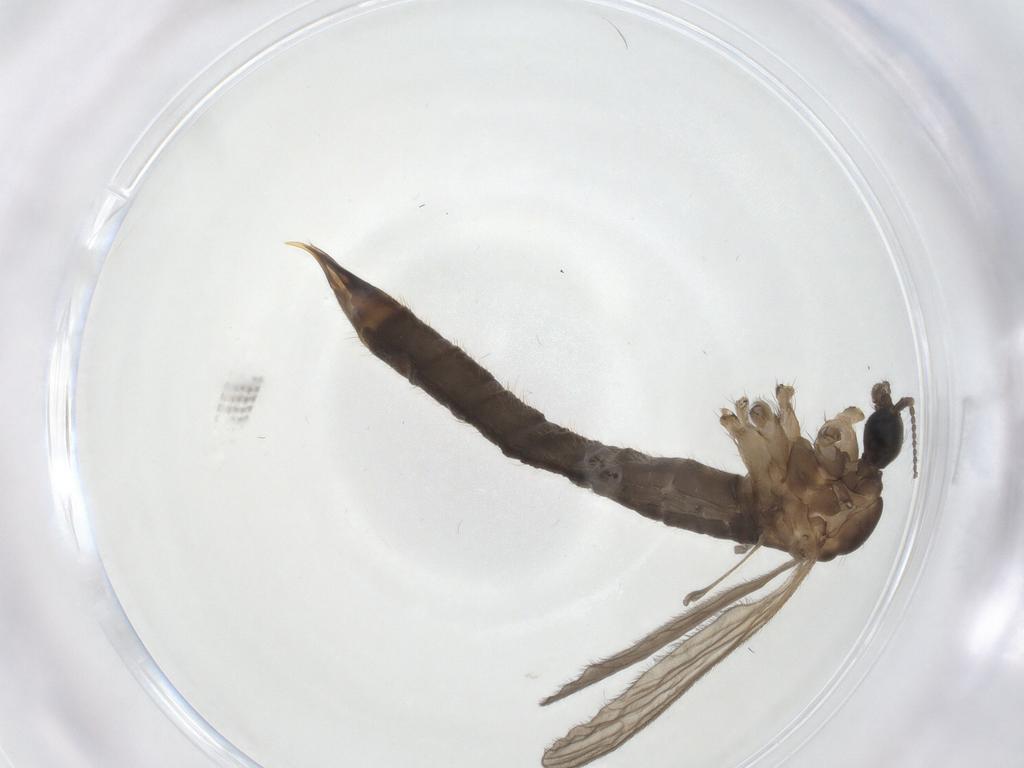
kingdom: Animalia
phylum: Arthropoda
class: Insecta
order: Diptera
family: Limoniidae
